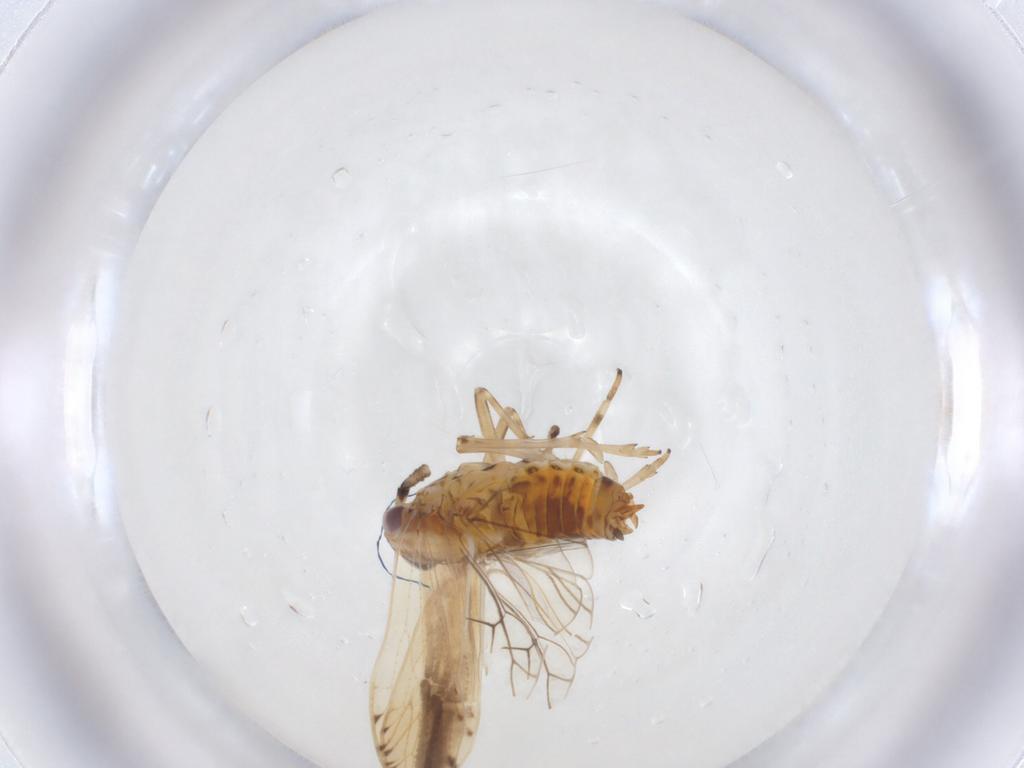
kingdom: Animalia
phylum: Arthropoda
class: Insecta
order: Hemiptera
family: Delphacidae
